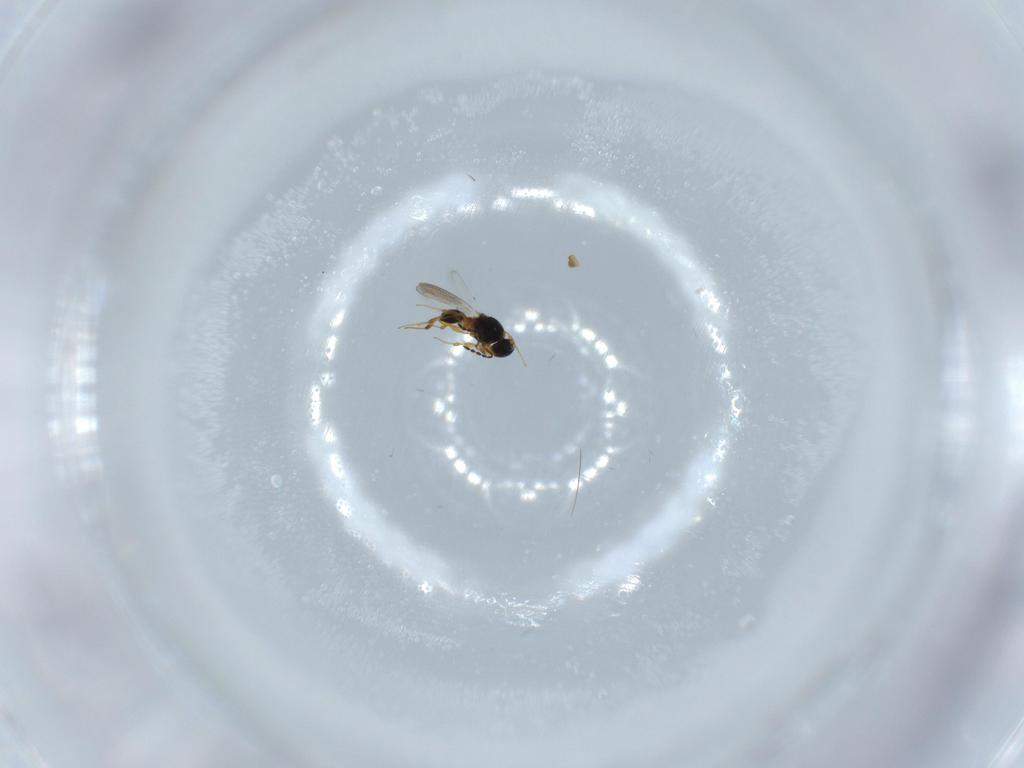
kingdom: Animalia
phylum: Arthropoda
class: Insecta
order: Hymenoptera
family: Platygastridae
